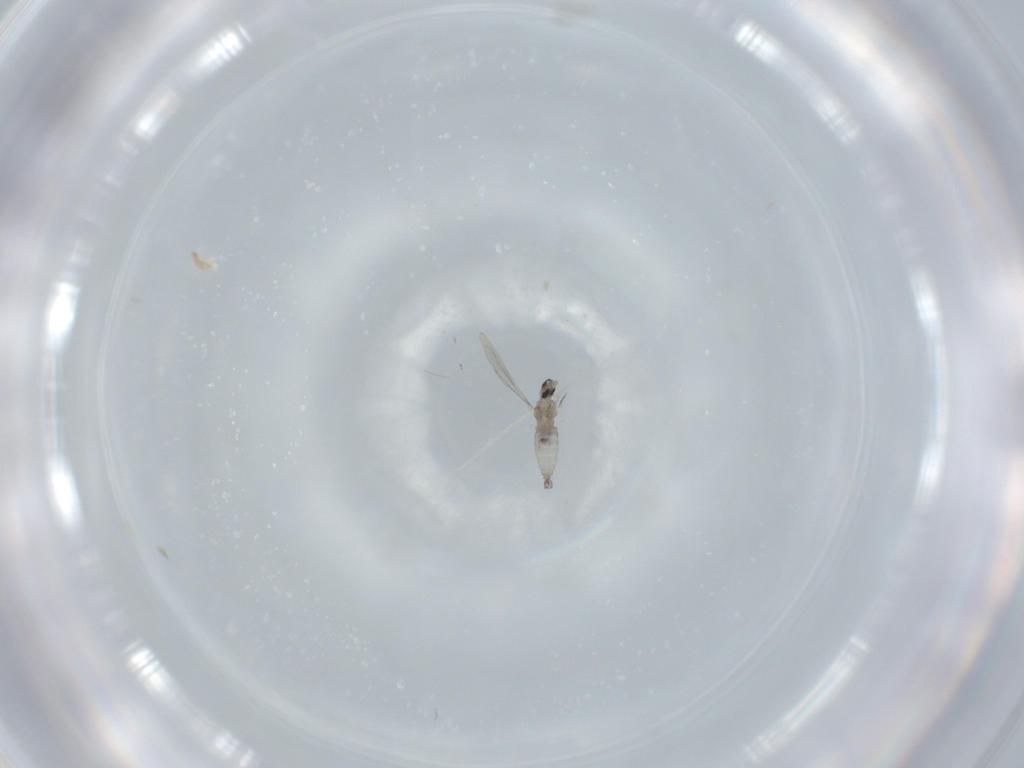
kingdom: Animalia
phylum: Arthropoda
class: Insecta
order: Diptera
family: Cecidomyiidae
